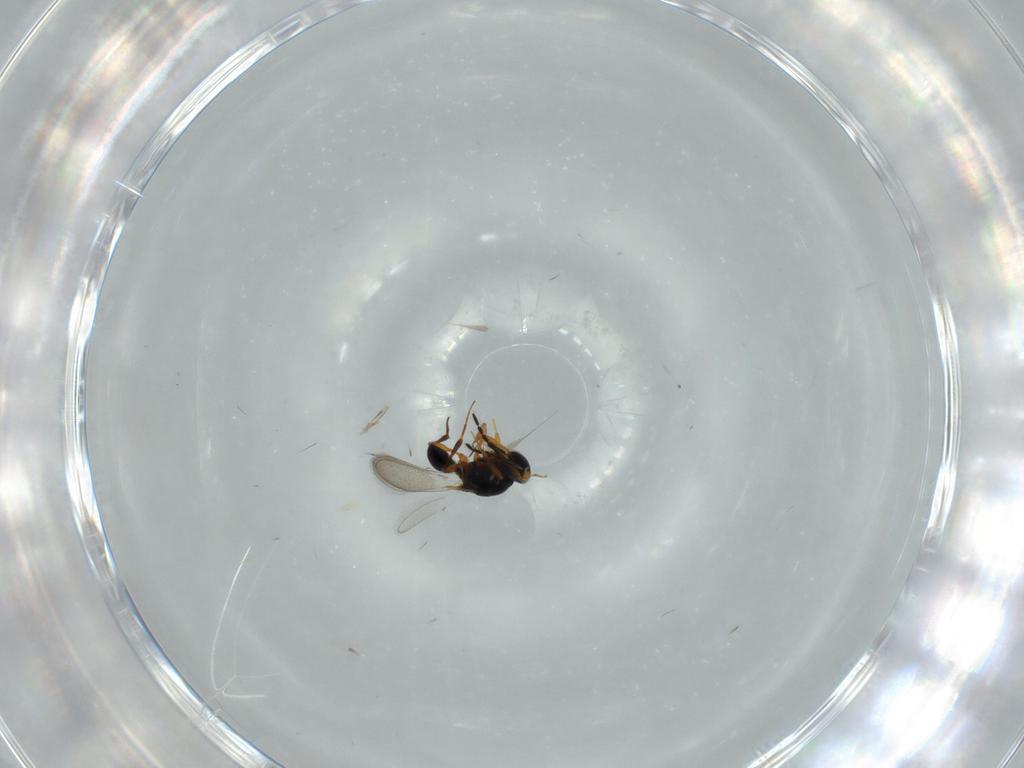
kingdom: Animalia
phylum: Arthropoda
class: Insecta
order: Hymenoptera
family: Platygastridae
